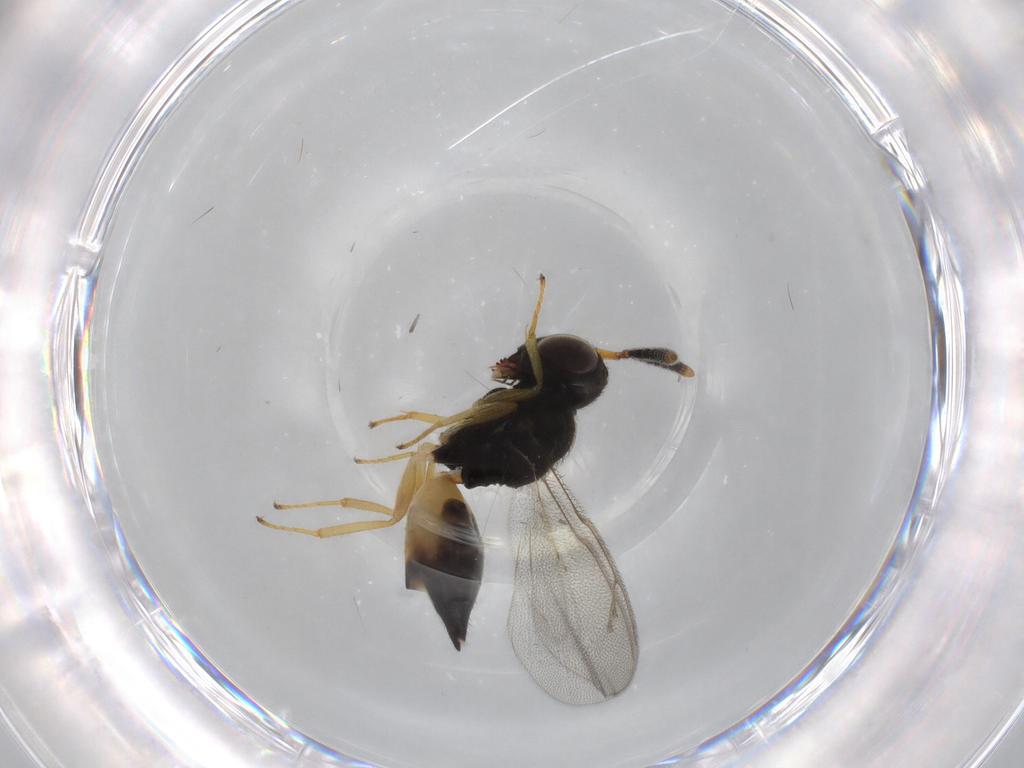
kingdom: Animalia
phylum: Arthropoda
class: Insecta
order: Hymenoptera
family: Pteromalidae
